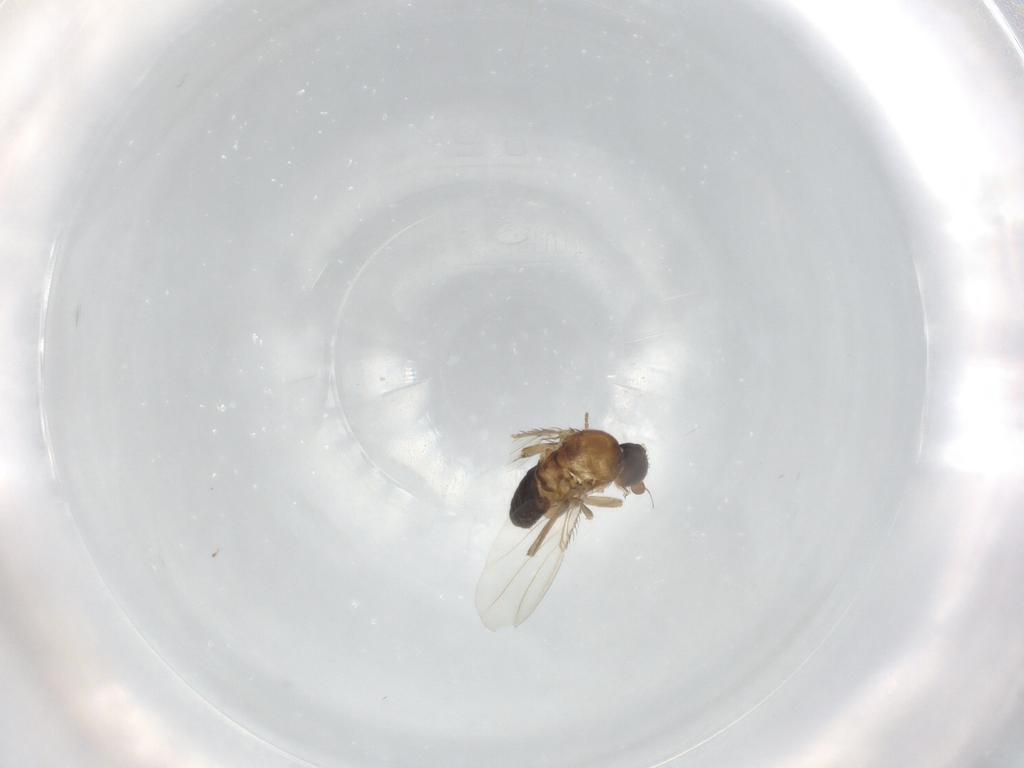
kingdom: Animalia
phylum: Arthropoda
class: Insecta
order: Diptera
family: Phoridae
